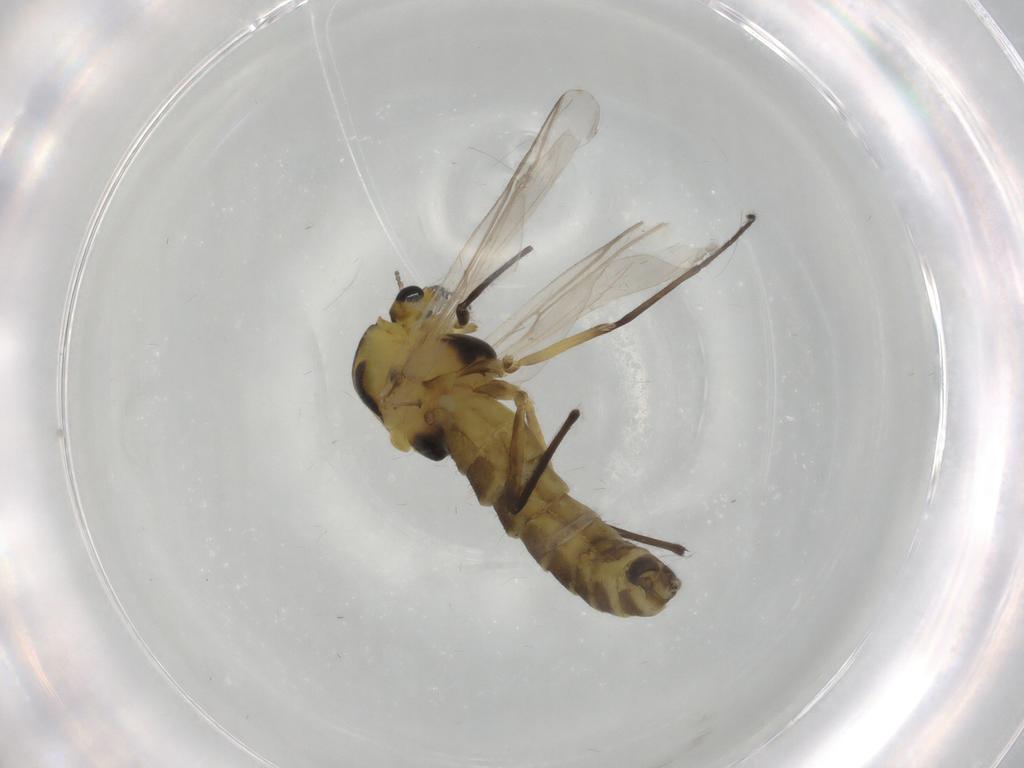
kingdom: Animalia
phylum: Arthropoda
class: Insecta
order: Diptera
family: Chironomidae
